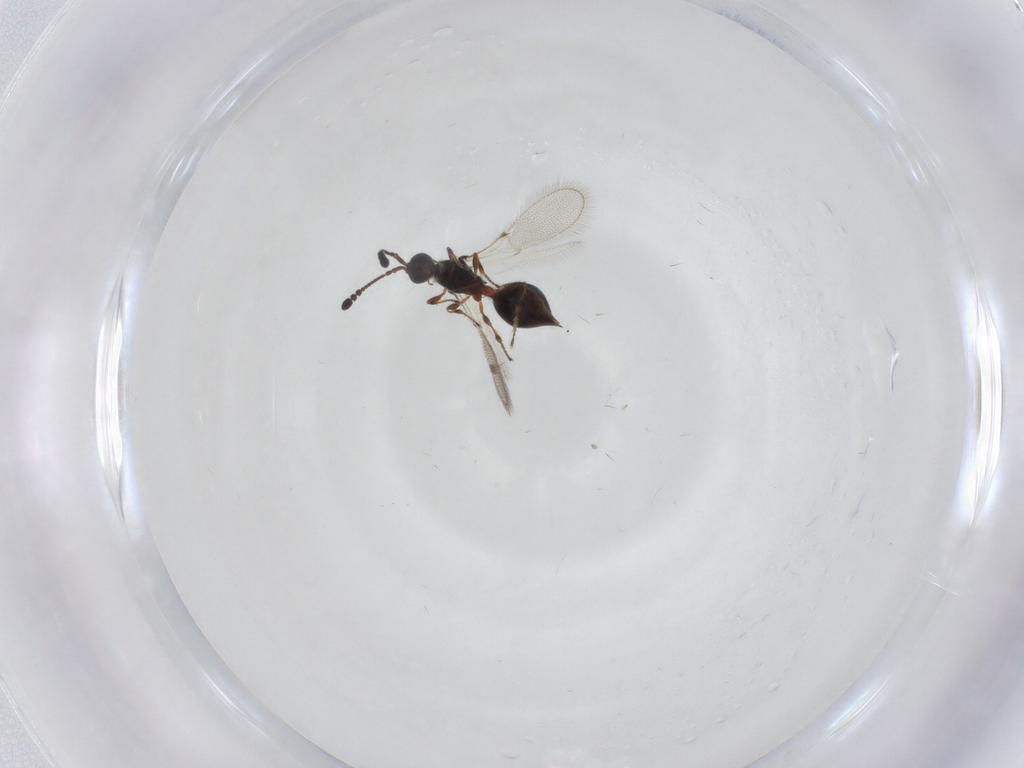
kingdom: Animalia
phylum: Arthropoda
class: Insecta
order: Hymenoptera
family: Diapriidae
